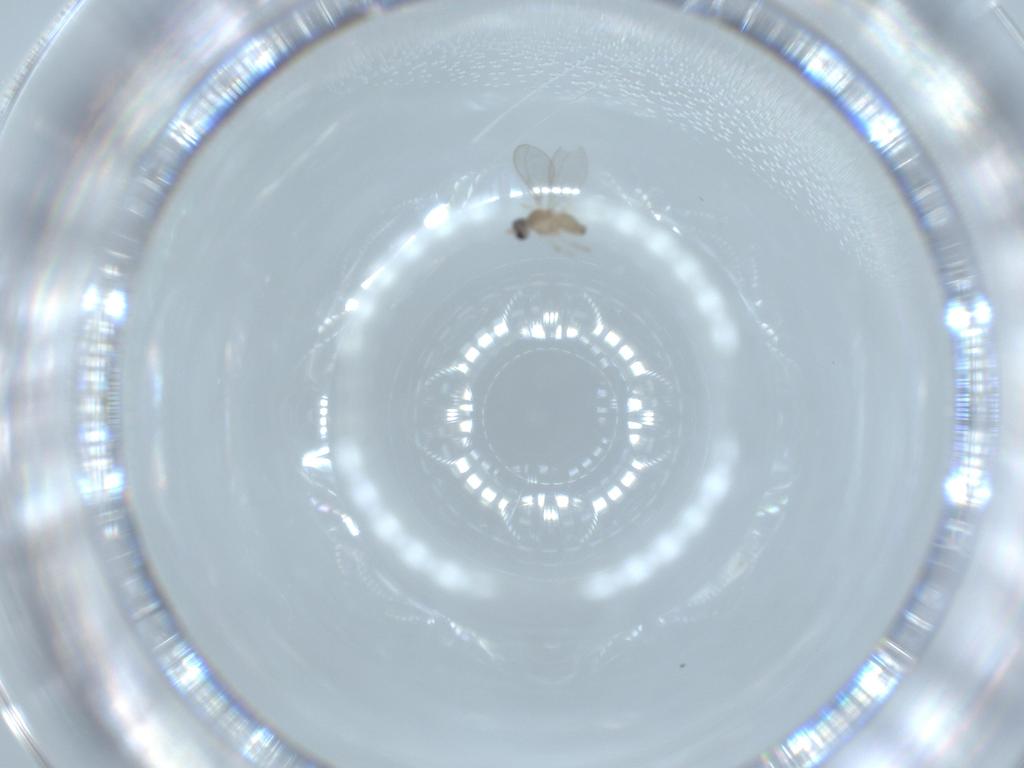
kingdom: Animalia
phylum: Arthropoda
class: Insecta
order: Diptera
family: Cecidomyiidae
